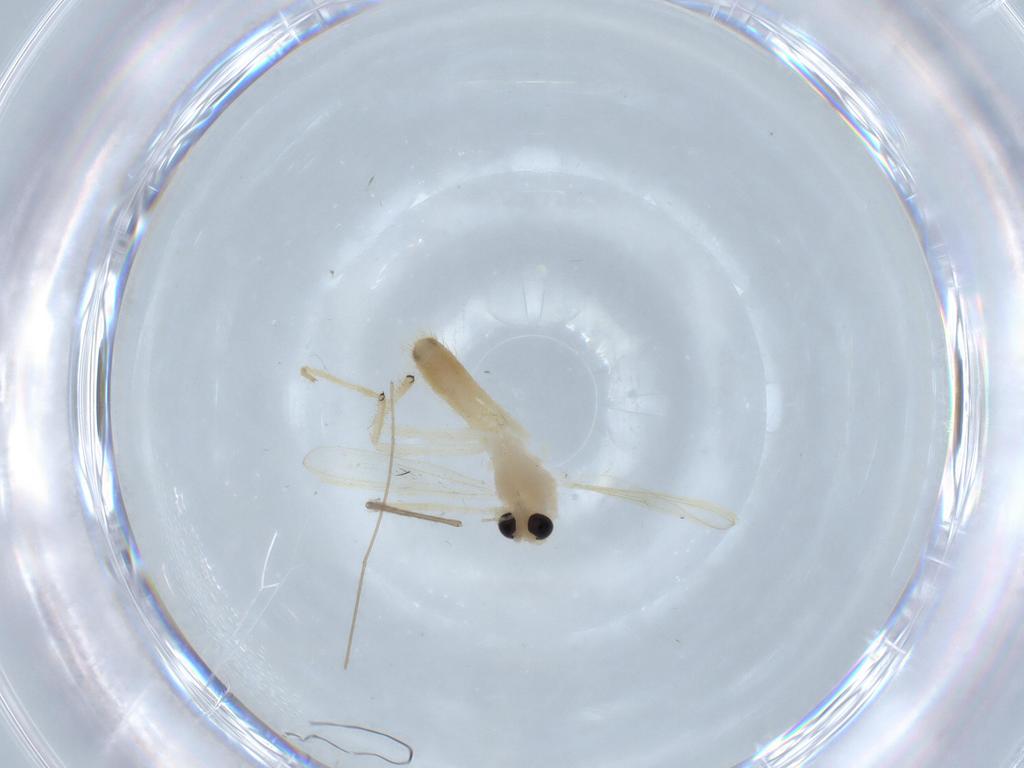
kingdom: Animalia
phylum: Arthropoda
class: Insecta
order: Diptera
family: Chironomidae
